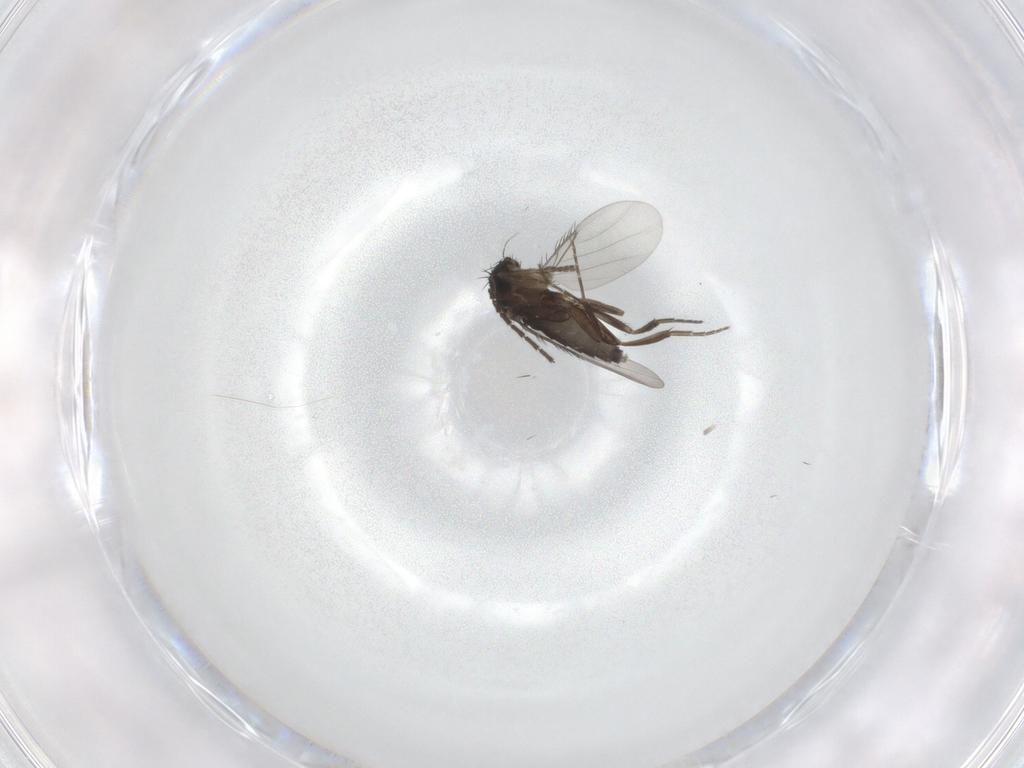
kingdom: Animalia
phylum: Arthropoda
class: Insecta
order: Diptera
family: Phoridae
